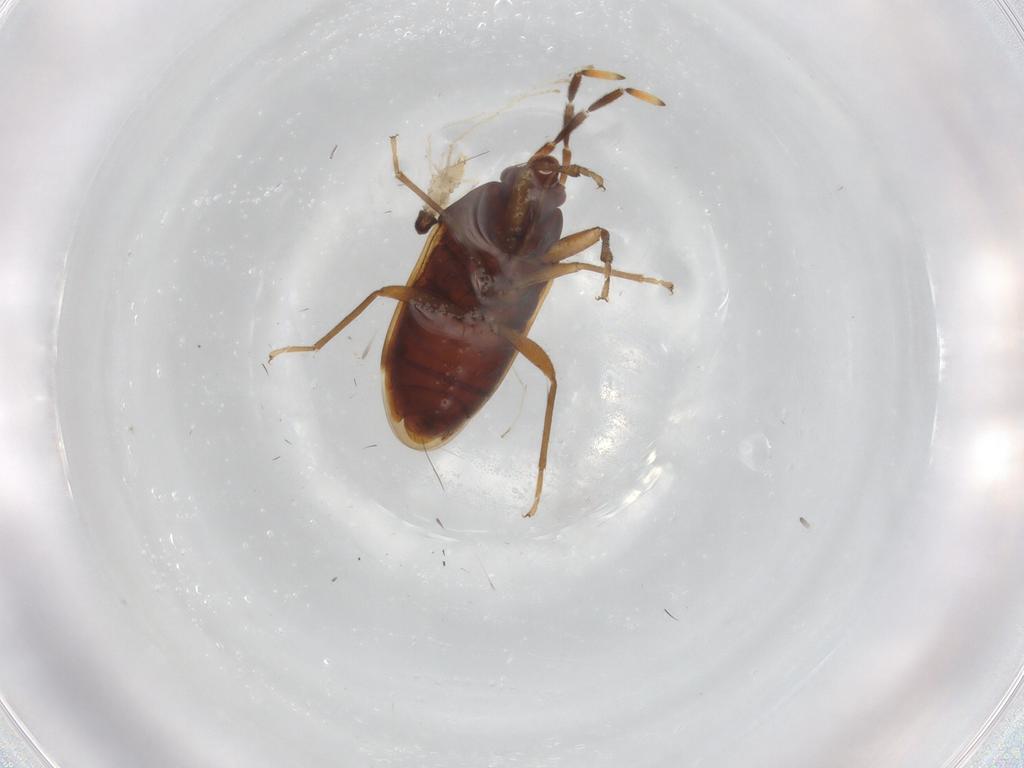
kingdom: Animalia
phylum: Arthropoda
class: Insecta
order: Hemiptera
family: Rhyparochromidae
